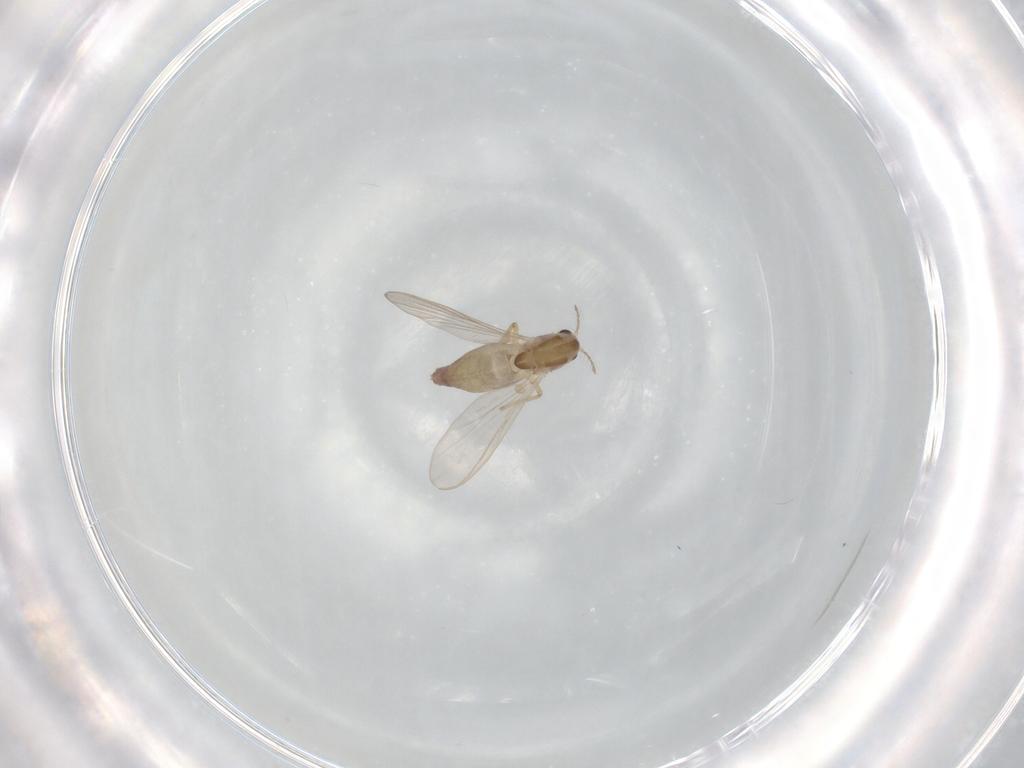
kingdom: Animalia
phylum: Arthropoda
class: Insecta
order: Diptera
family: Chironomidae
